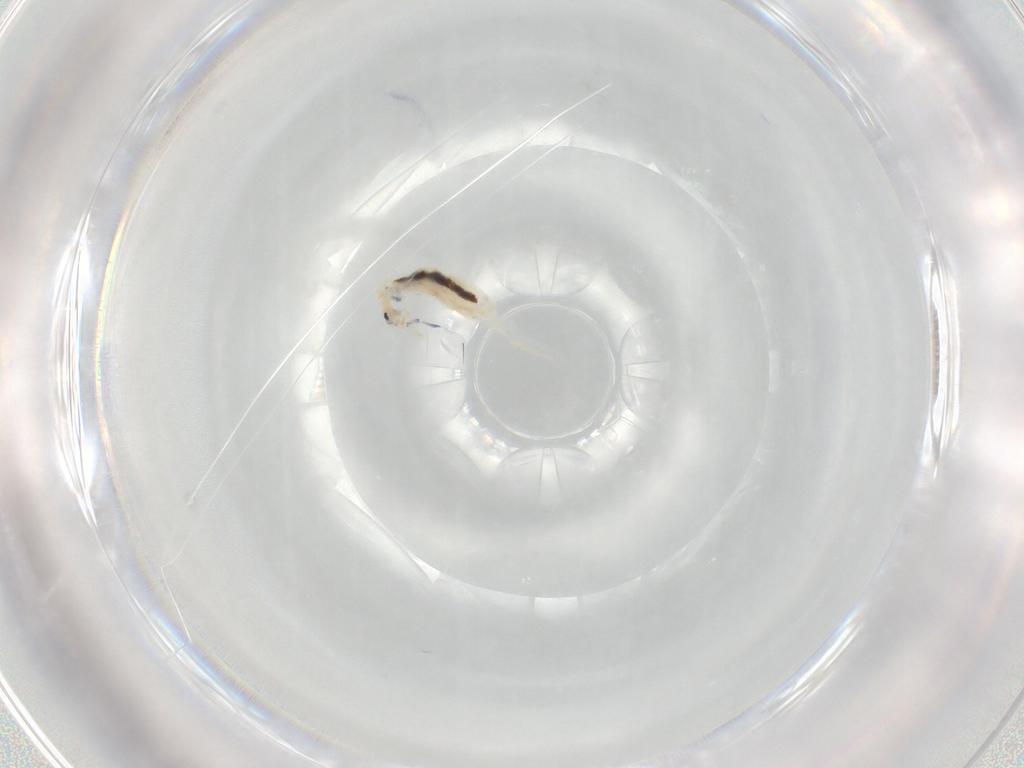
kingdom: Animalia
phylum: Arthropoda
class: Collembola
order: Entomobryomorpha
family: Entomobryidae
